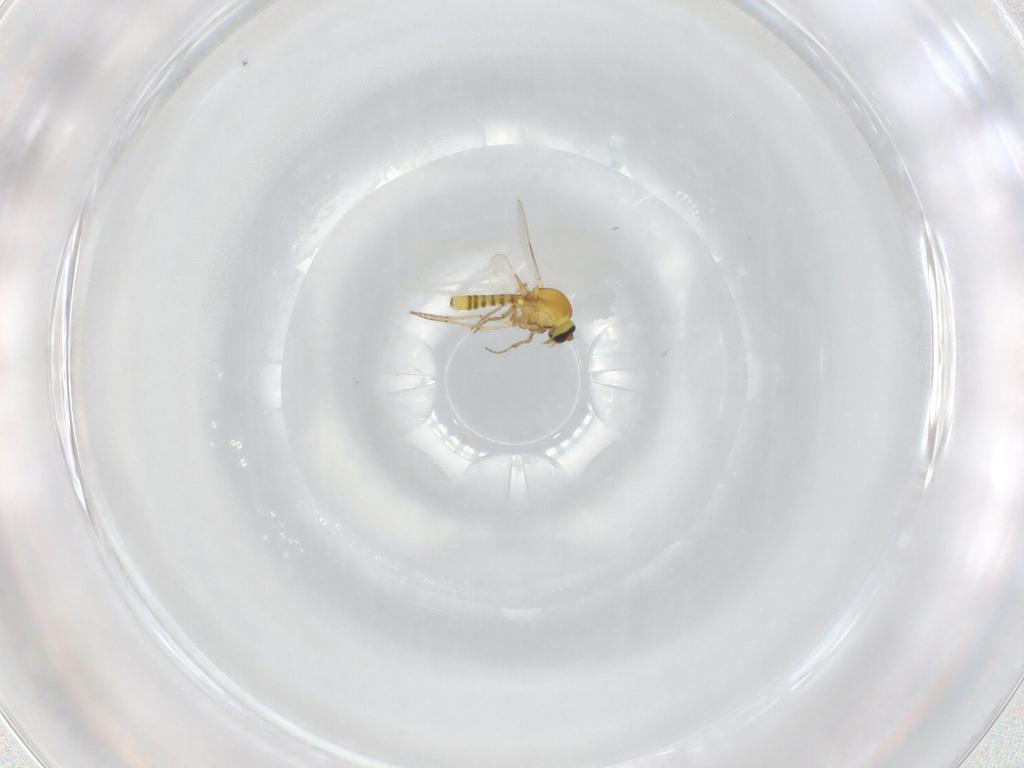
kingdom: Animalia
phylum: Arthropoda
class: Insecta
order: Diptera
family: Ceratopogonidae
